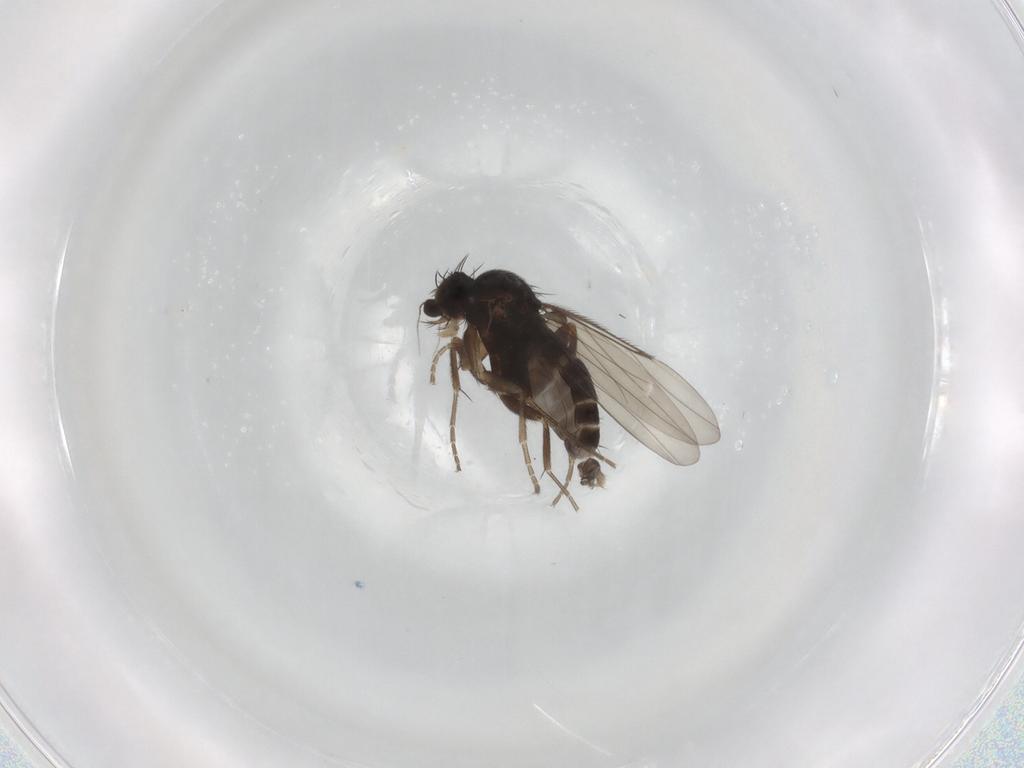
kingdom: Animalia
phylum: Arthropoda
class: Insecta
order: Diptera
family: Phoridae
